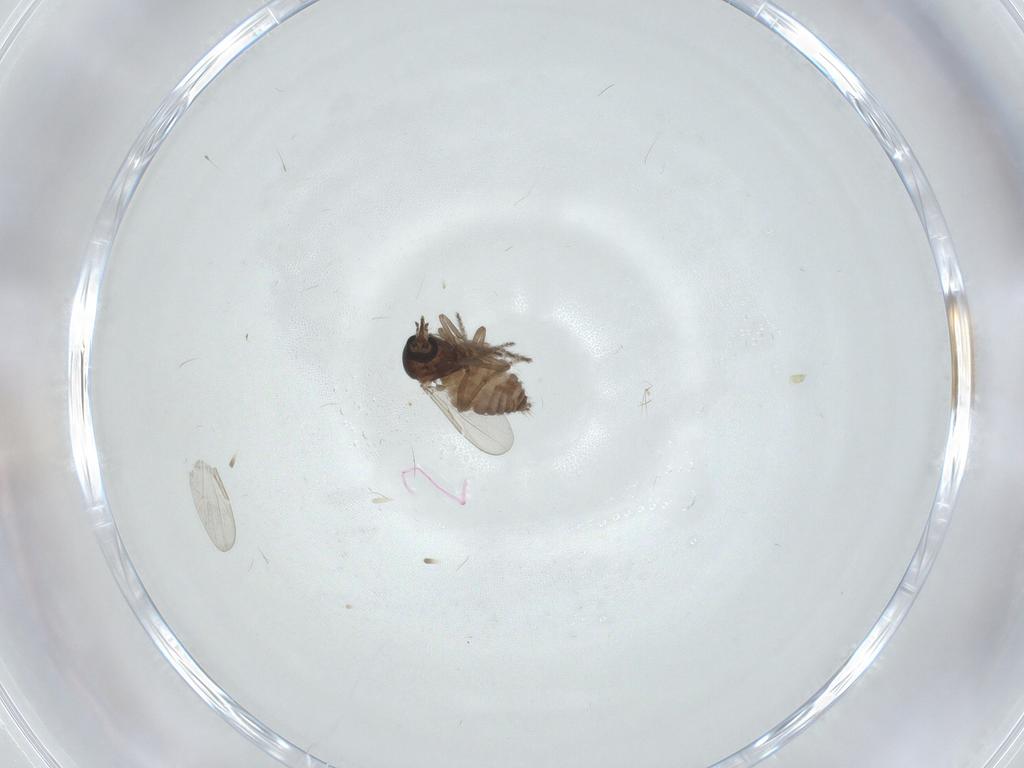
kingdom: Animalia
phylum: Arthropoda
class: Insecta
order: Diptera
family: Ceratopogonidae
